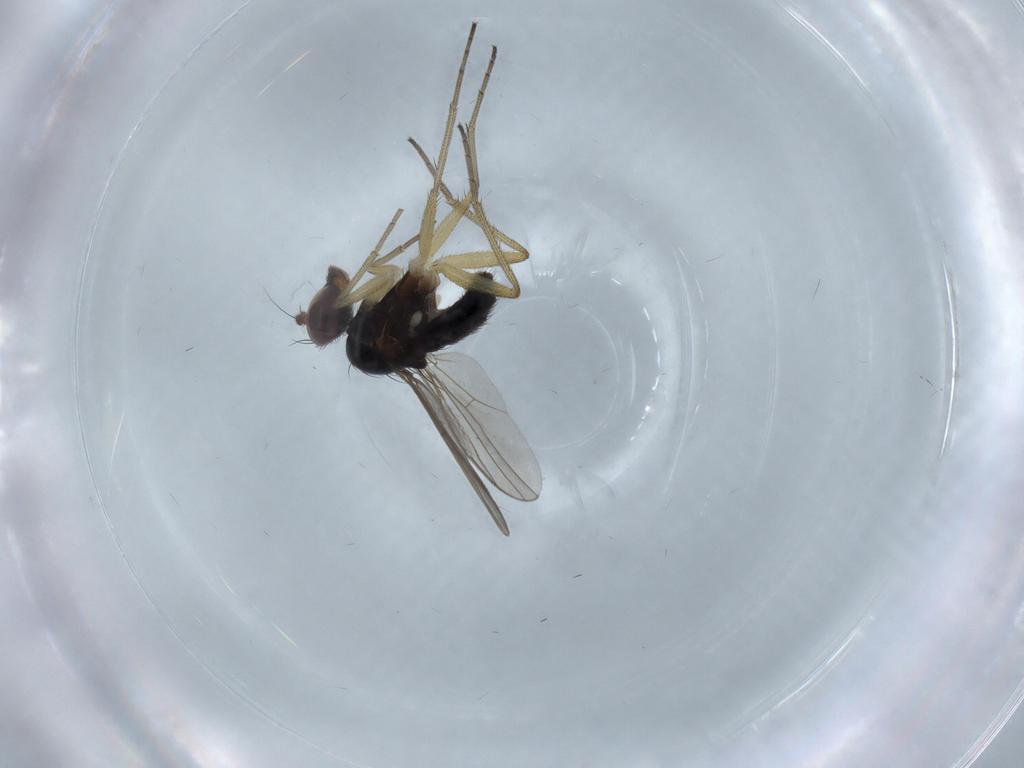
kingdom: Animalia
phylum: Arthropoda
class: Insecta
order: Diptera
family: Dolichopodidae
